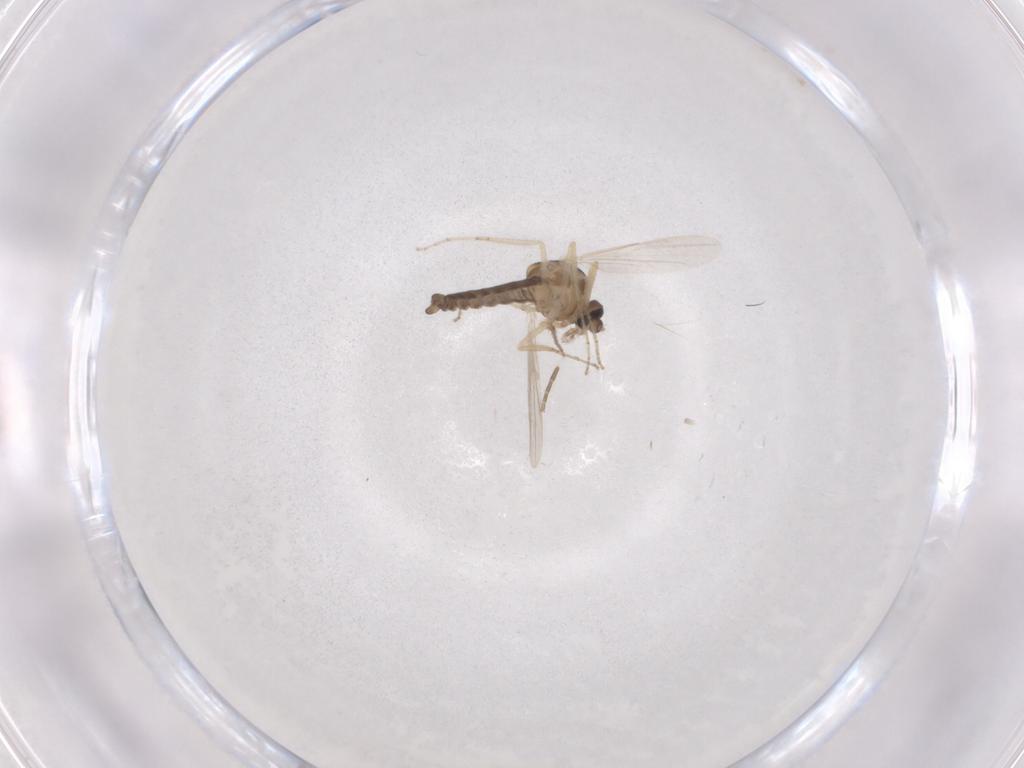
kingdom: Animalia
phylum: Arthropoda
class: Insecta
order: Diptera
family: Ceratopogonidae
